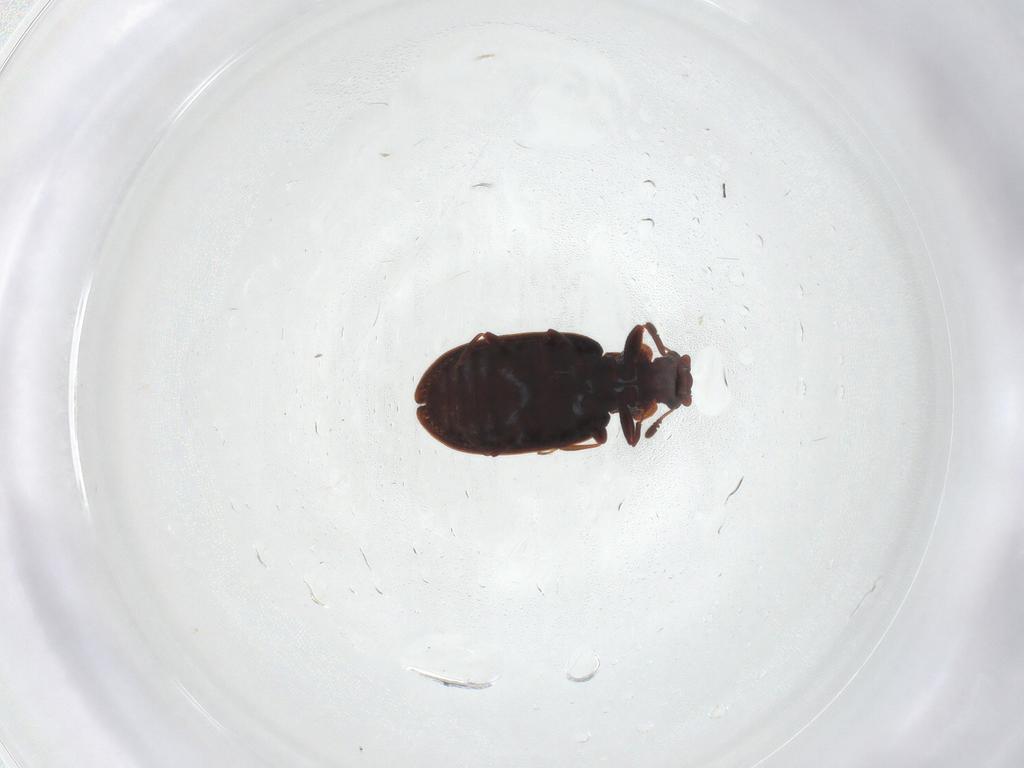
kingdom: Animalia
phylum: Arthropoda
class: Insecta
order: Coleoptera
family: Latridiidae
